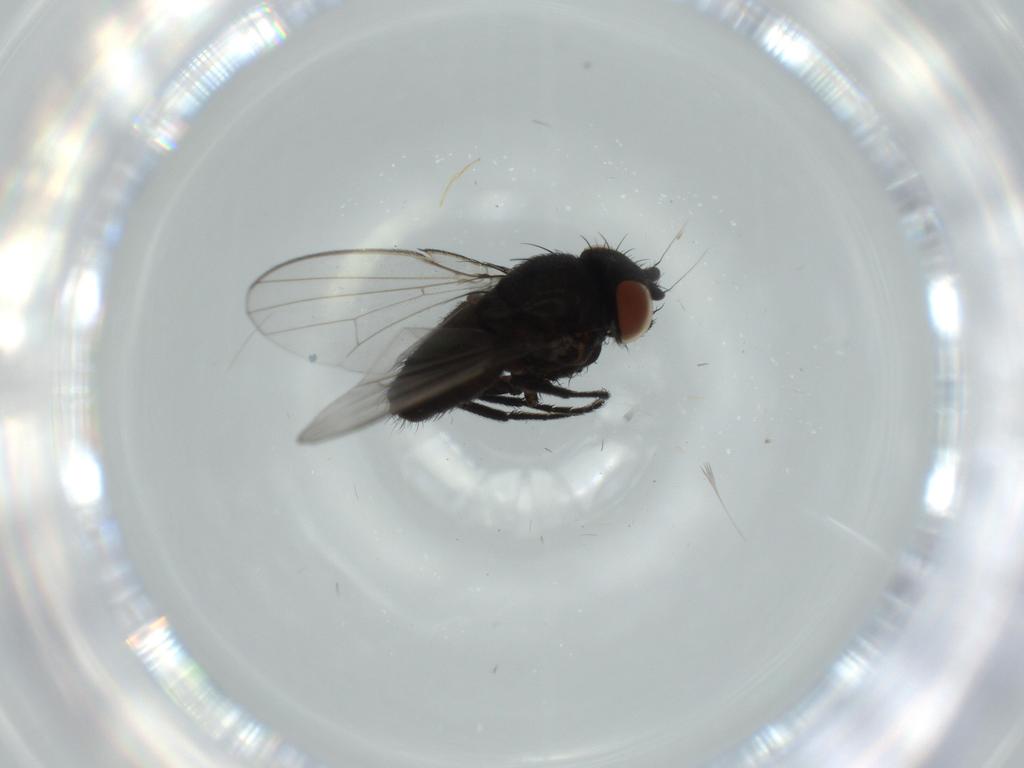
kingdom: Animalia
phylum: Arthropoda
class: Insecta
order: Diptera
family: Milichiidae
